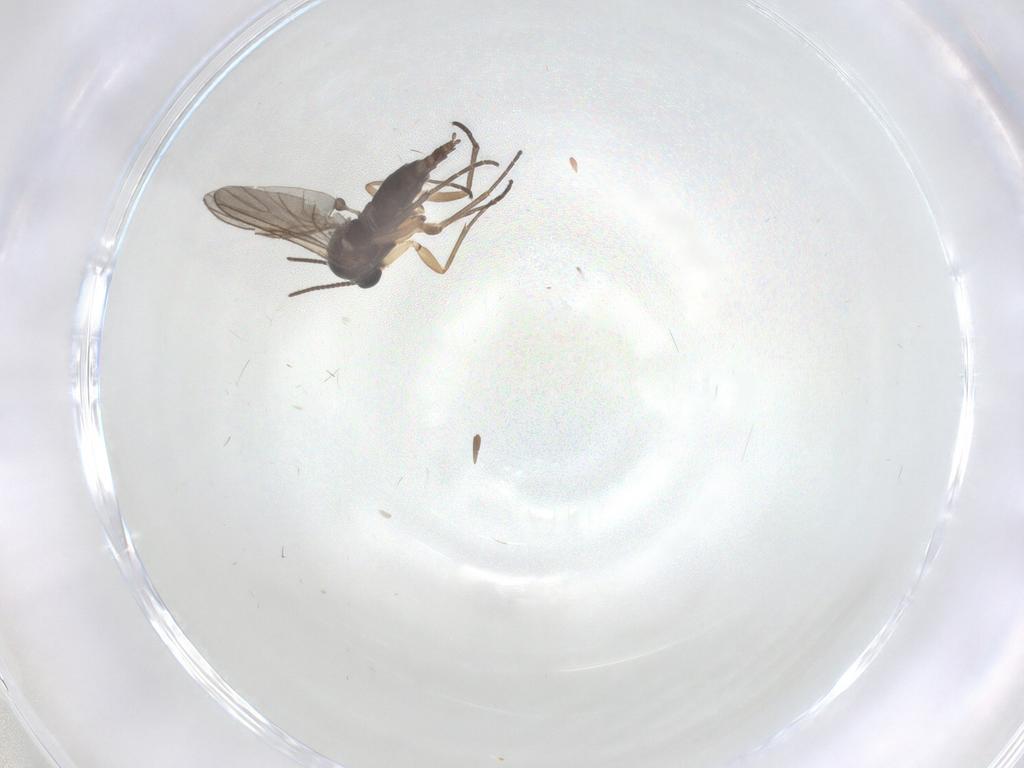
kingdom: Animalia
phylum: Arthropoda
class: Insecta
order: Diptera
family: Sciaridae
